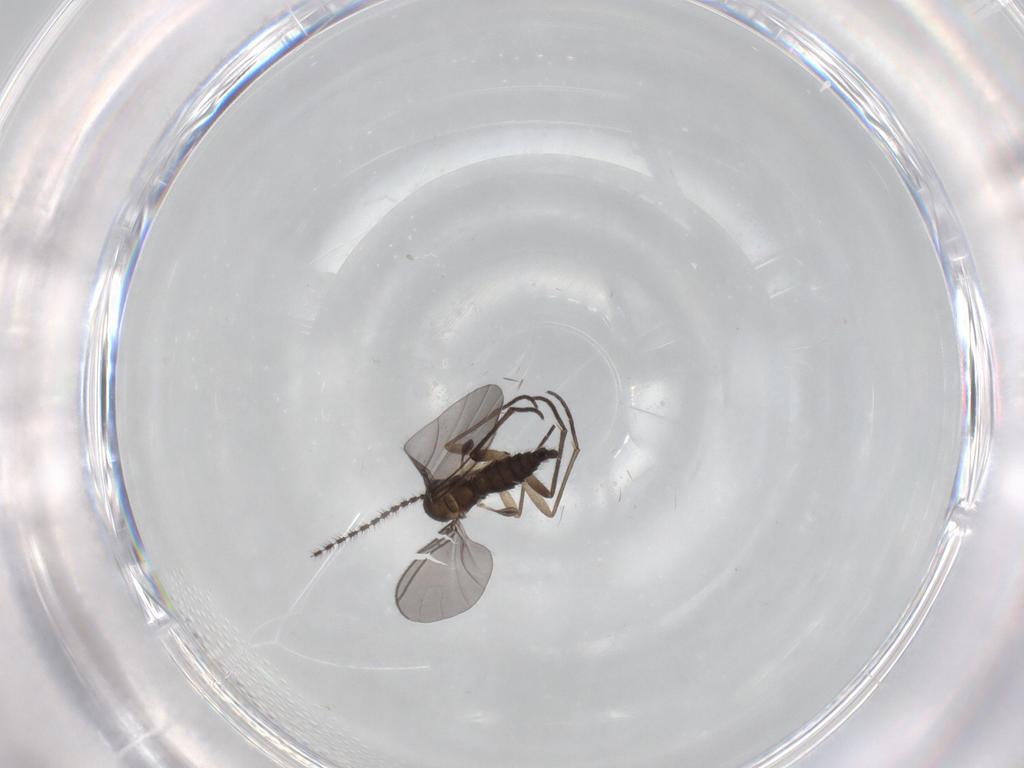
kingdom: Animalia
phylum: Arthropoda
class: Insecta
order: Diptera
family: Sciaridae
